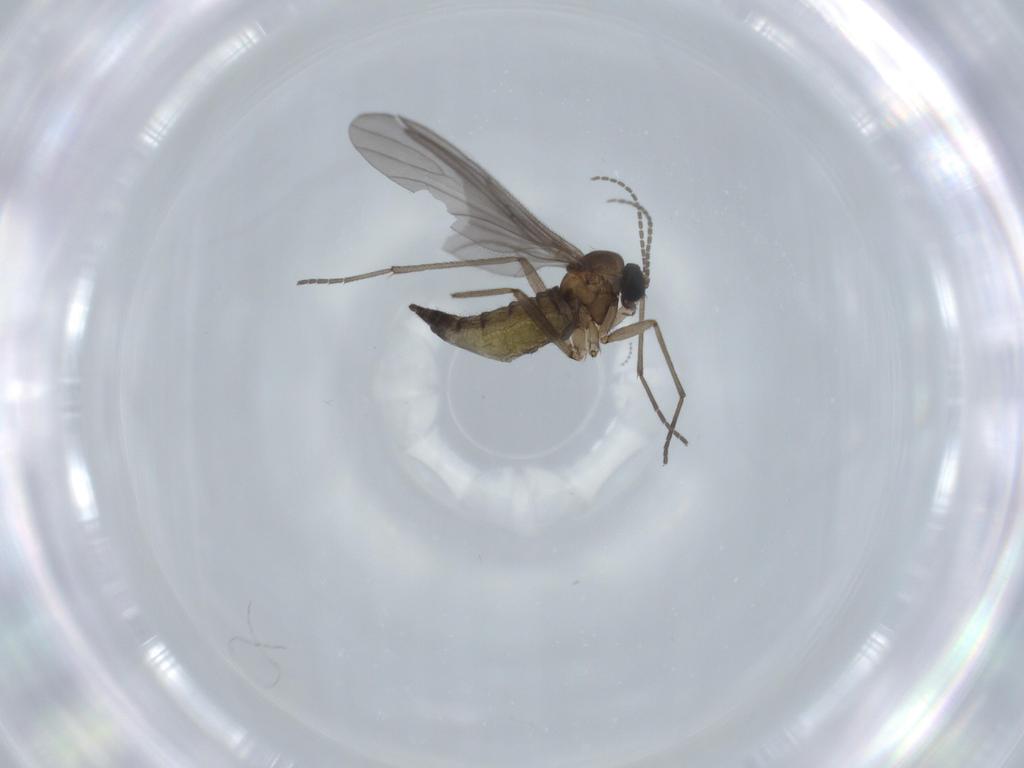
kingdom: Animalia
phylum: Arthropoda
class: Insecta
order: Diptera
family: Sciaridae
